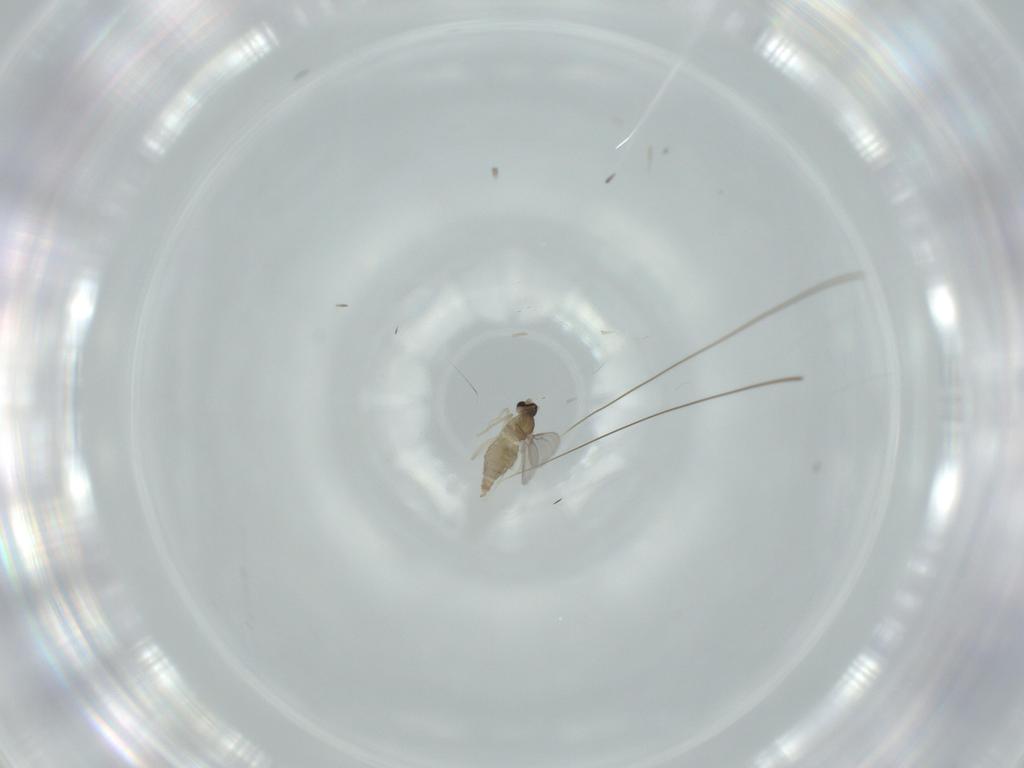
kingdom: Animalia
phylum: Arthropoda
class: Insecta
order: Diptera
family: Cecidomyiidae
